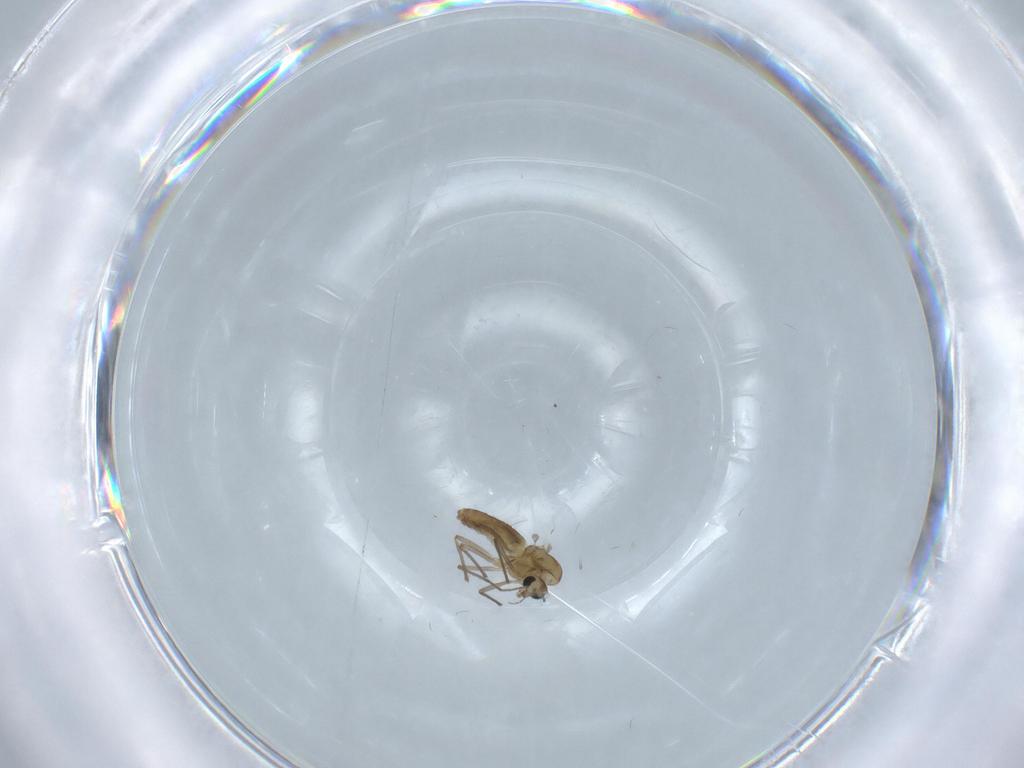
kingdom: Animalia
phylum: Arthropoda
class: Insecta
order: Diptera
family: Chironomidae
